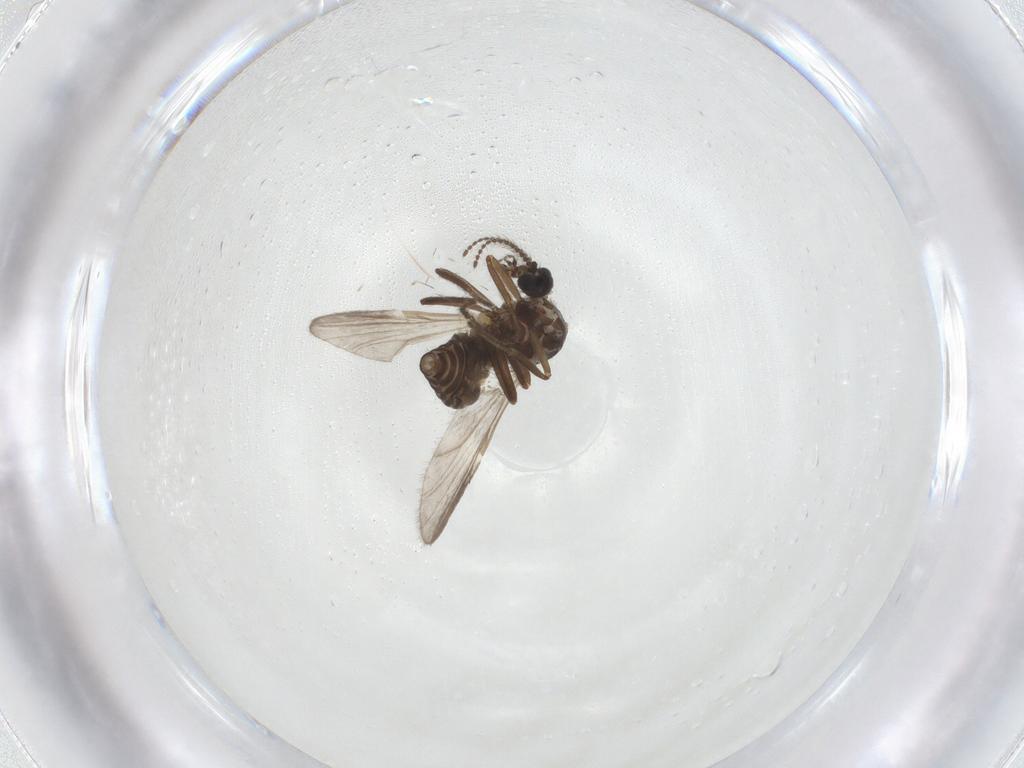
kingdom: Animalia
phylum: Arthropoda
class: Insecta
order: Diptera
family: Ceratopogonidae
